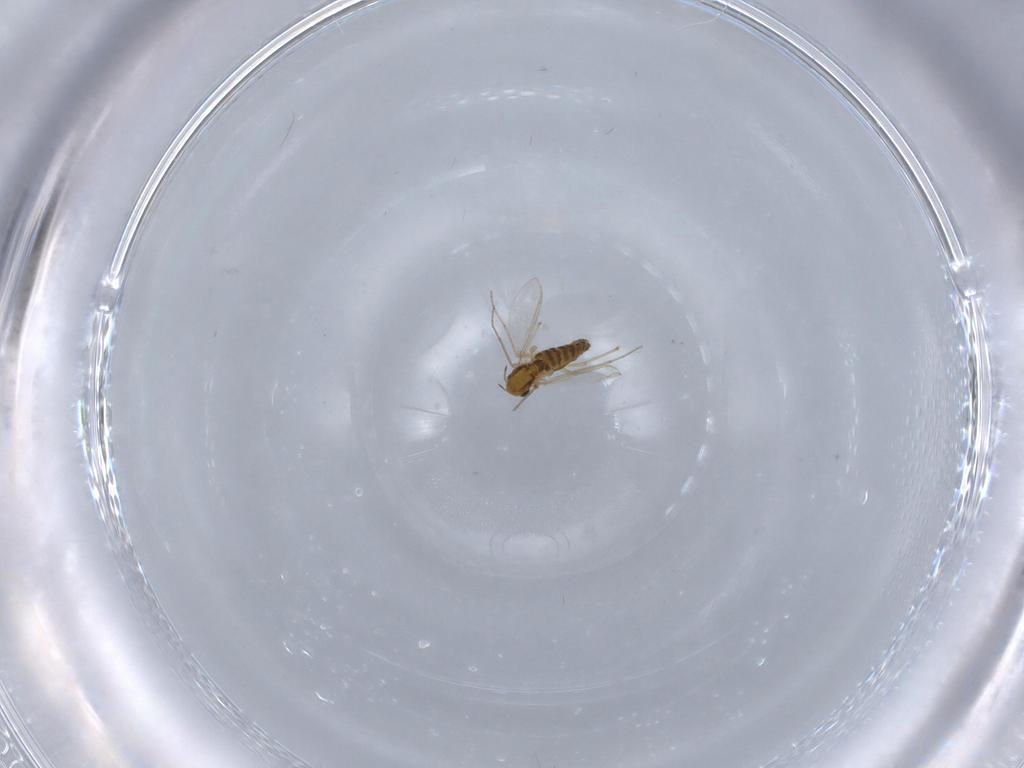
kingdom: Animalia
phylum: Arthropoda
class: Insecta
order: Diptera
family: Chironomidae
